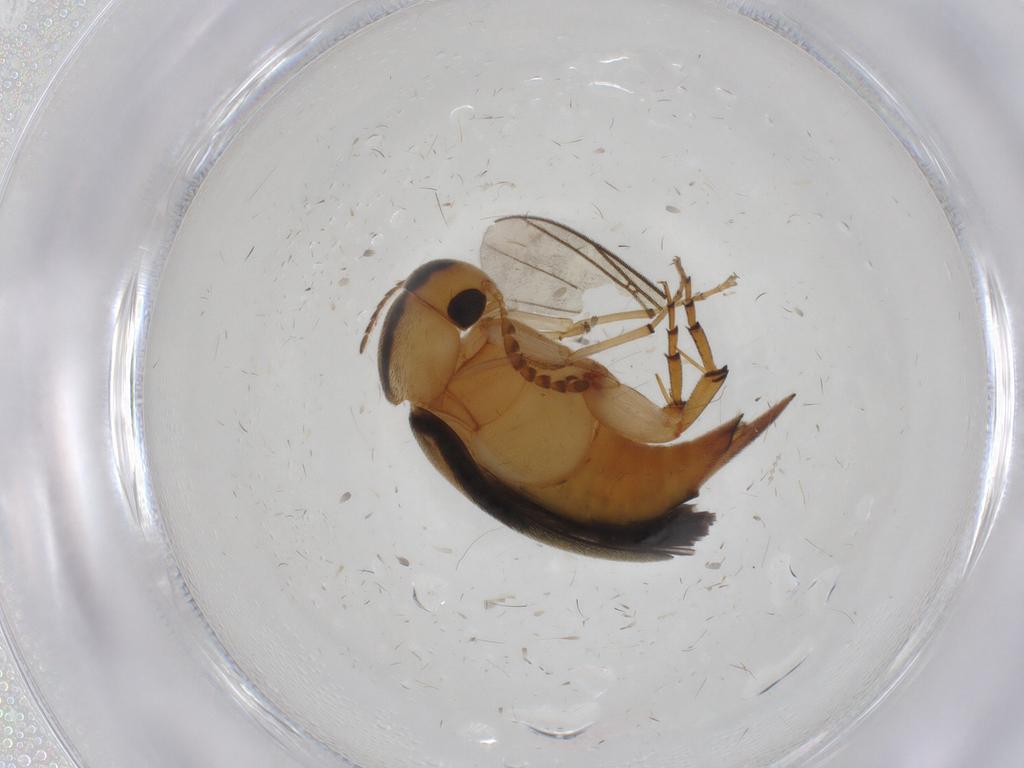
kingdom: Animalia
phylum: Arthropoda
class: Insecta
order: Coleoptera
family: Mordellidae
